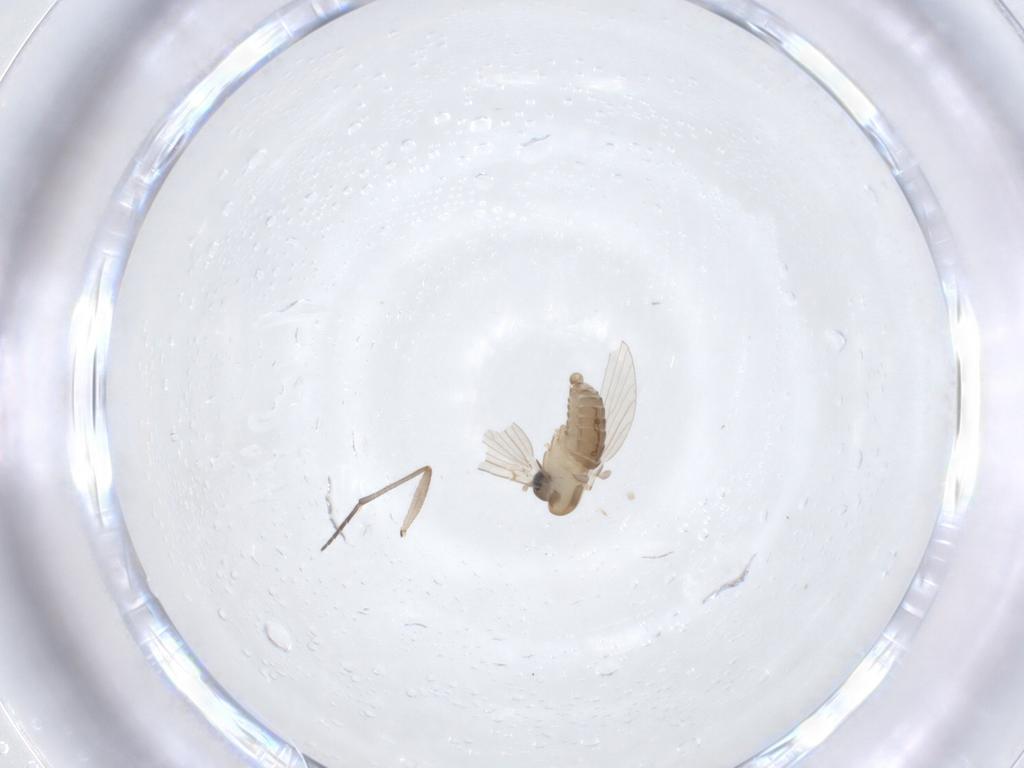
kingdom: Animalia
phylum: Arthropoda
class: Insecta
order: Diptera
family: Psychodidae
